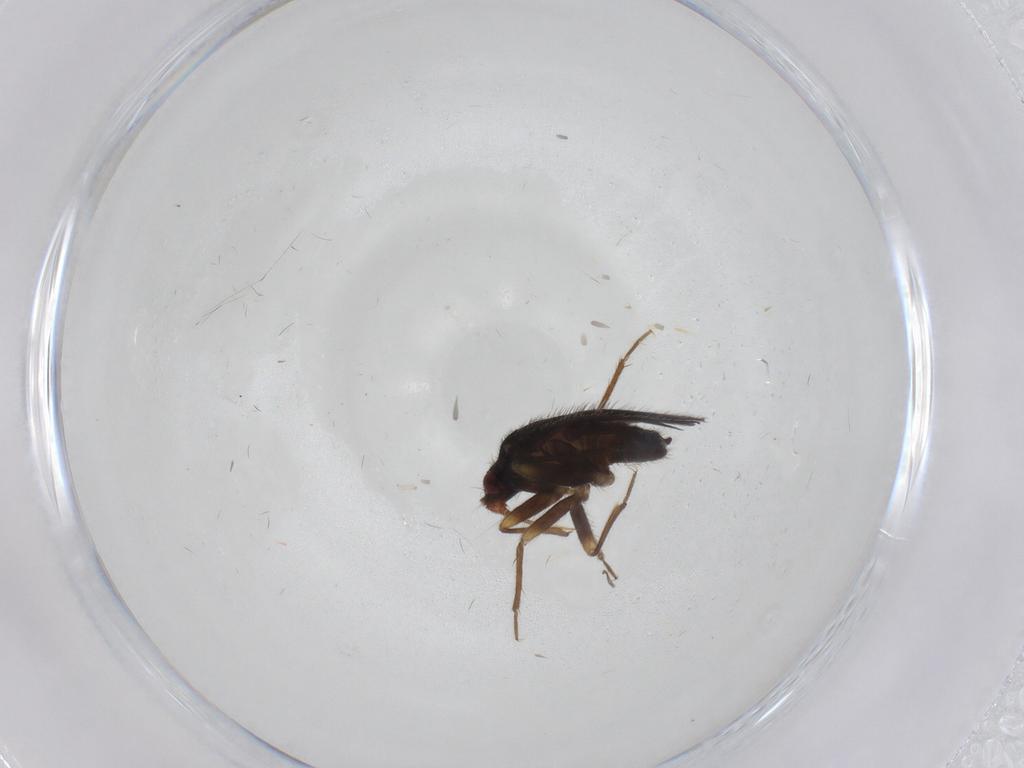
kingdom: Animalia
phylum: Arthropoda
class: Insecta
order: Hemiptera
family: Ceratocombidae
